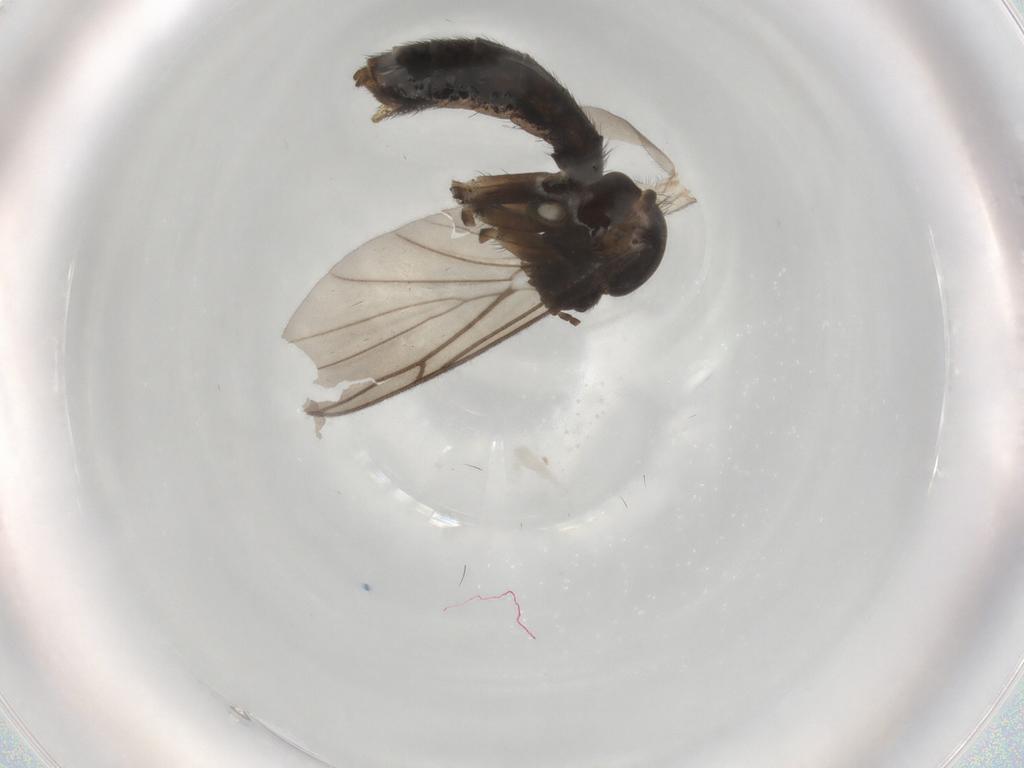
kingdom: Animalia
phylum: Arthropoda
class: Insecta
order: Diptera
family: Keroplatidae
